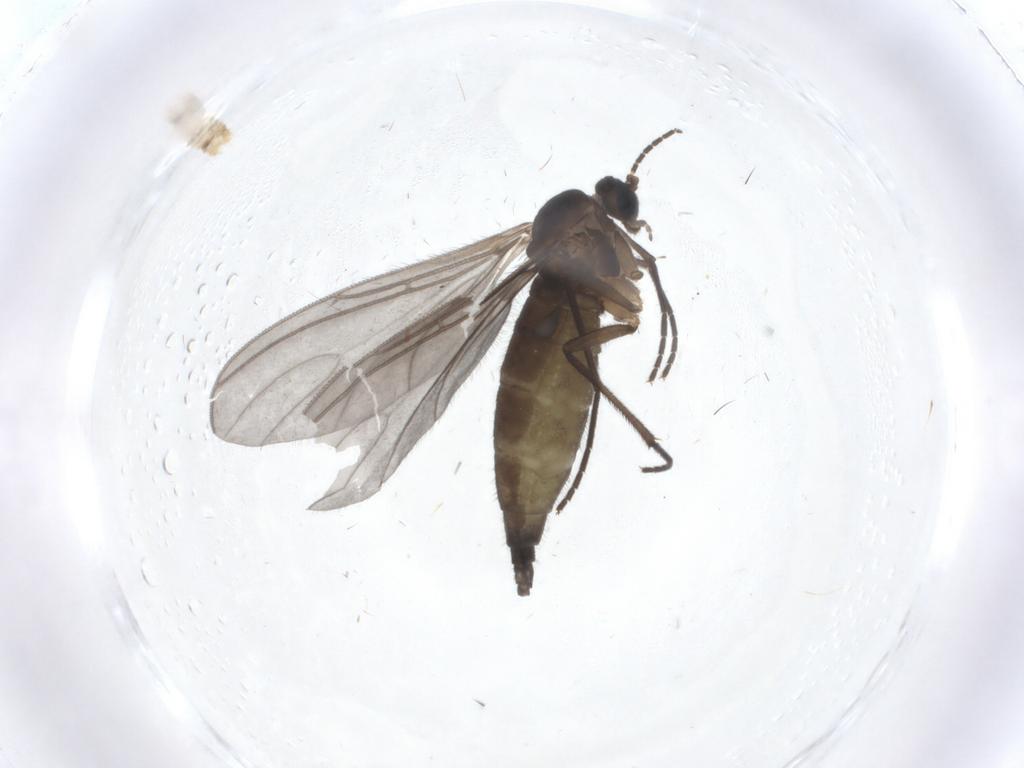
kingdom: Animalia
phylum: Arthropoda
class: Insecta
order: Diptera
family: Sciaridae
